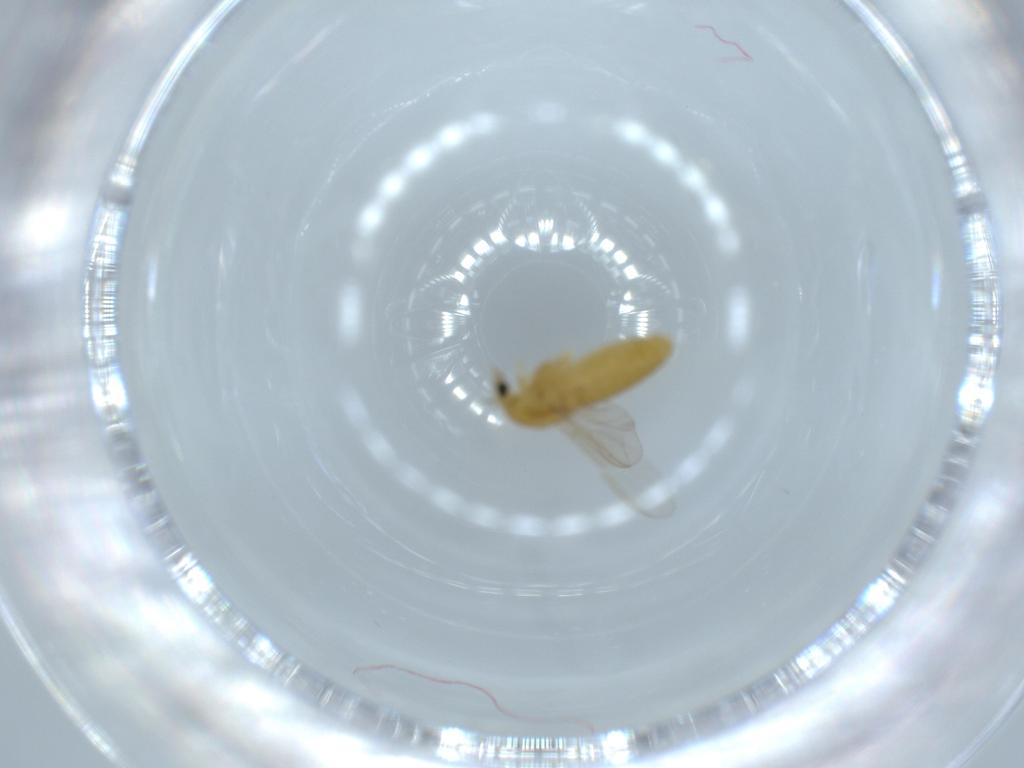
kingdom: Animalia
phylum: Arthropoda
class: Insecta
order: Diptera
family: Chironomidae
